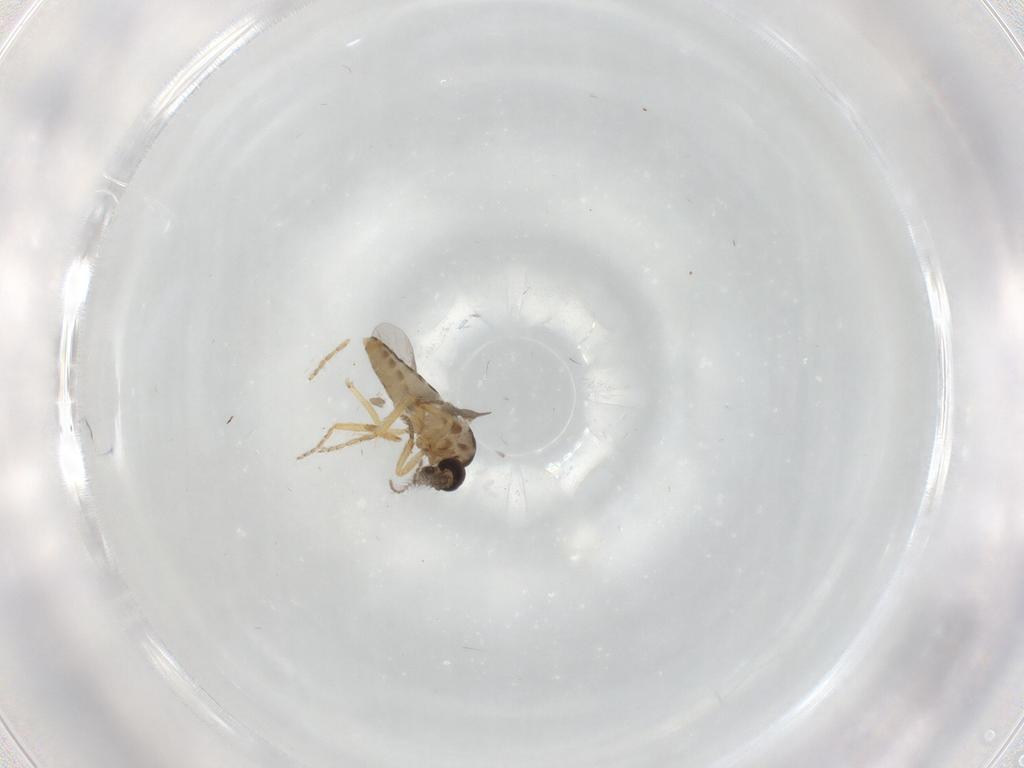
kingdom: Animalia
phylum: Arthropoda
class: Insecta
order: Diptera
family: Ceratopogonidae
